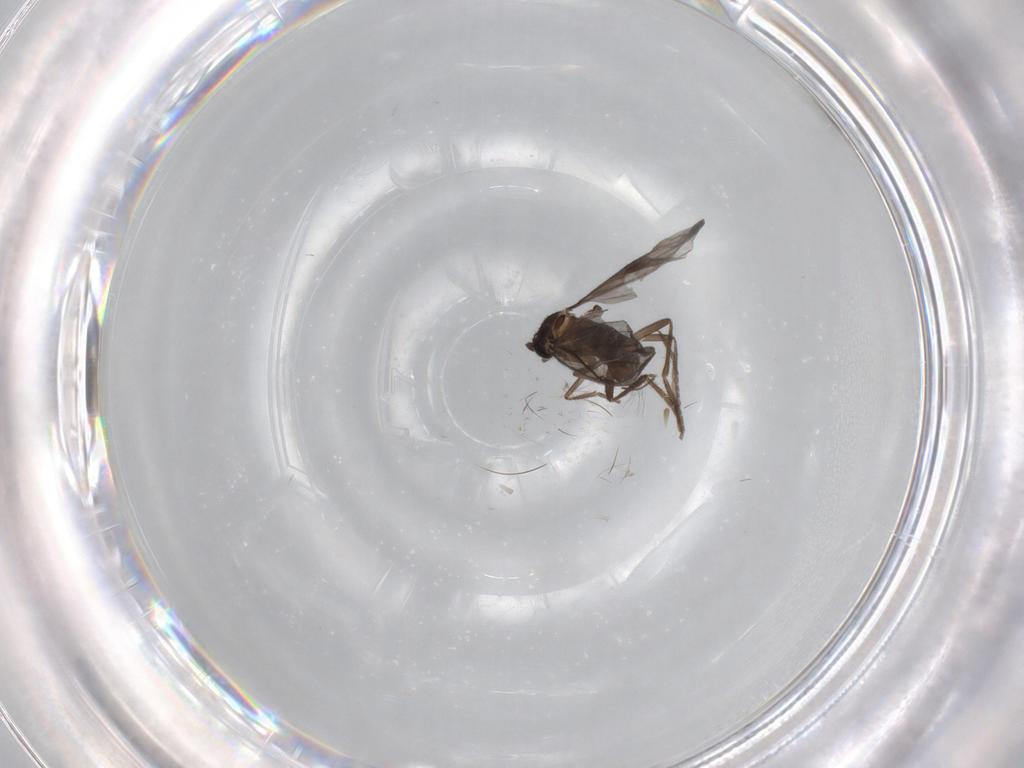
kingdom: Animalia
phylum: Arthropoda
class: Insecta
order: Diptera
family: Phoridae
